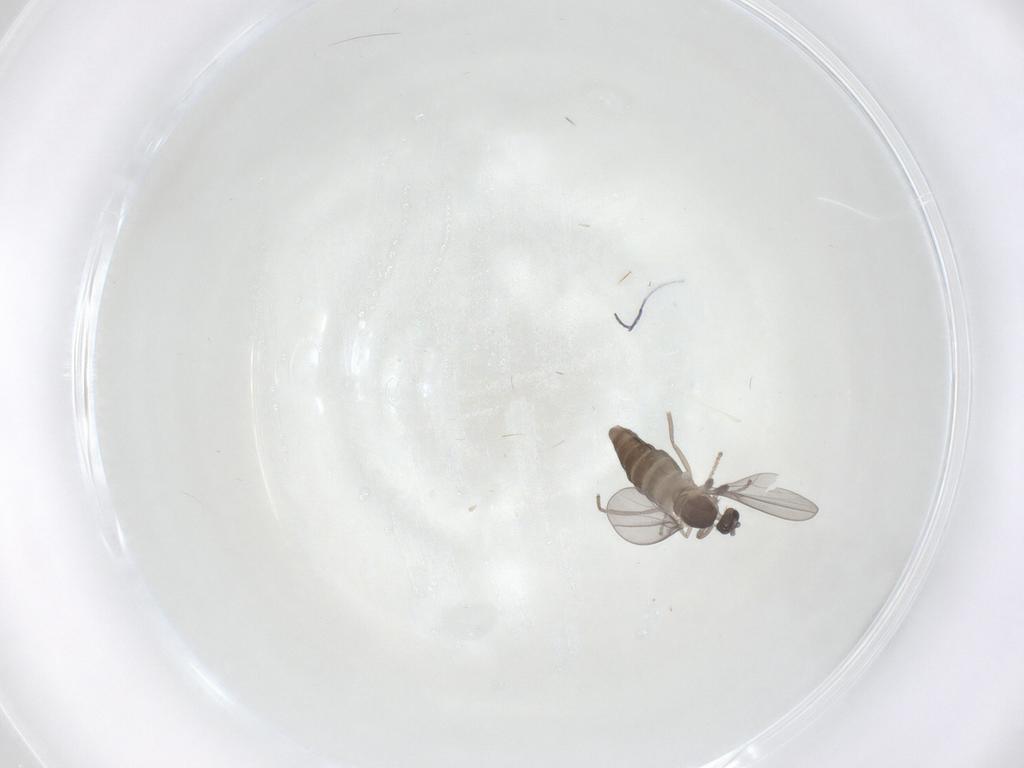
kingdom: Animalia
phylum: Arthropoda
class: Insecta
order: Diptera
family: Cecidomyiidae
